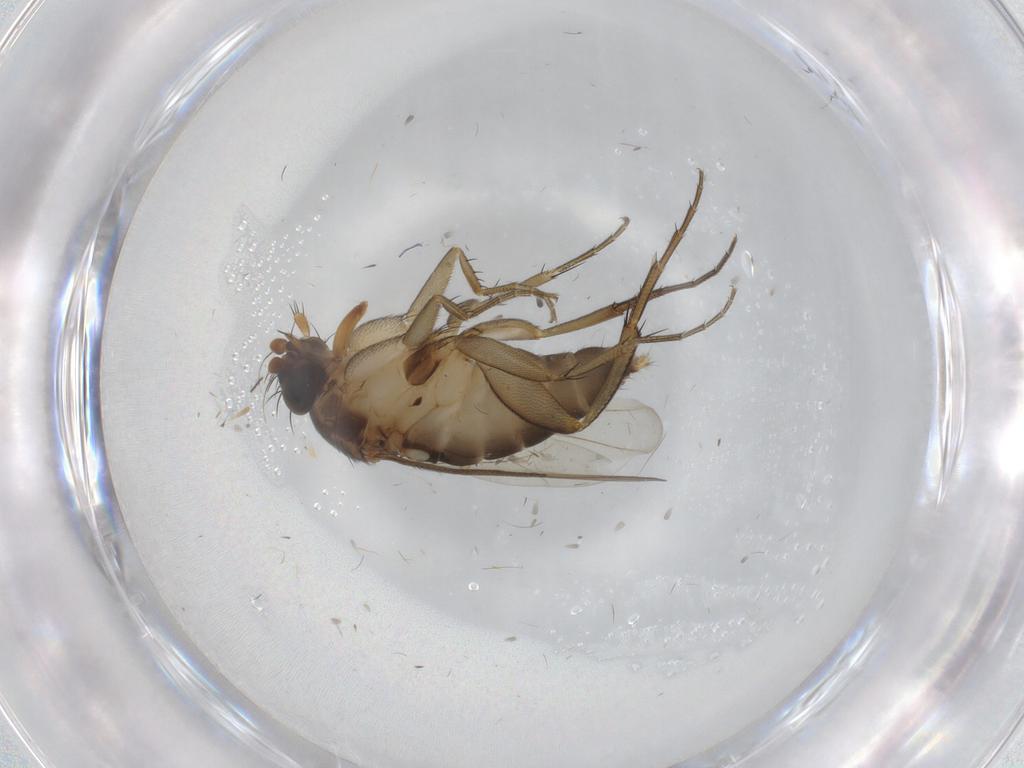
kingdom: Animalia
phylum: Arthropoda
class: Insecta
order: Diptera
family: Phoridae
